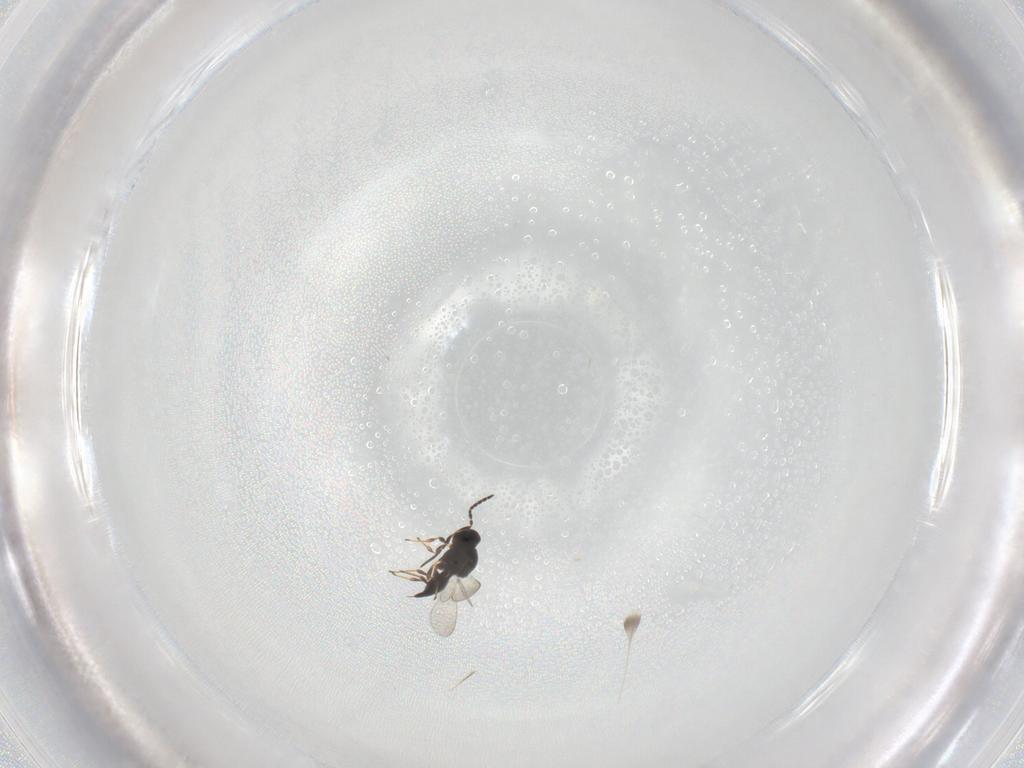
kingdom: Animalia
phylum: Arthropoda
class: Insecta
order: Hymenoptera
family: Platygastridae
